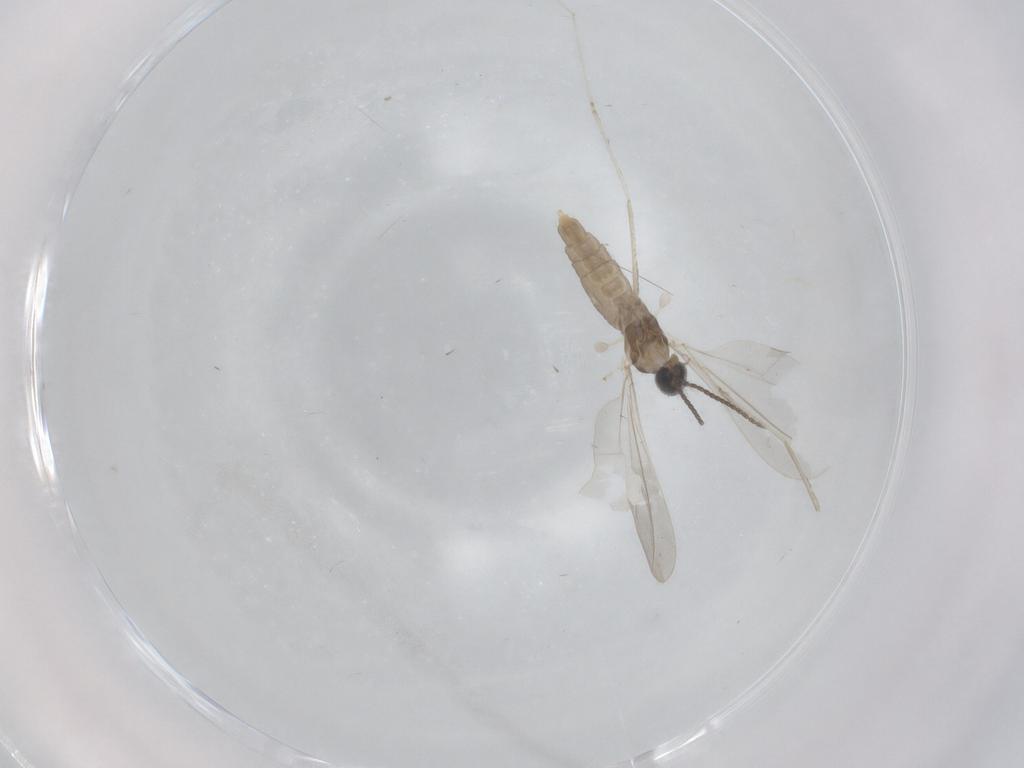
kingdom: Animalia
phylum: Arthropoda
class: Insecta
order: Diptera
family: Cecidomyiidae
